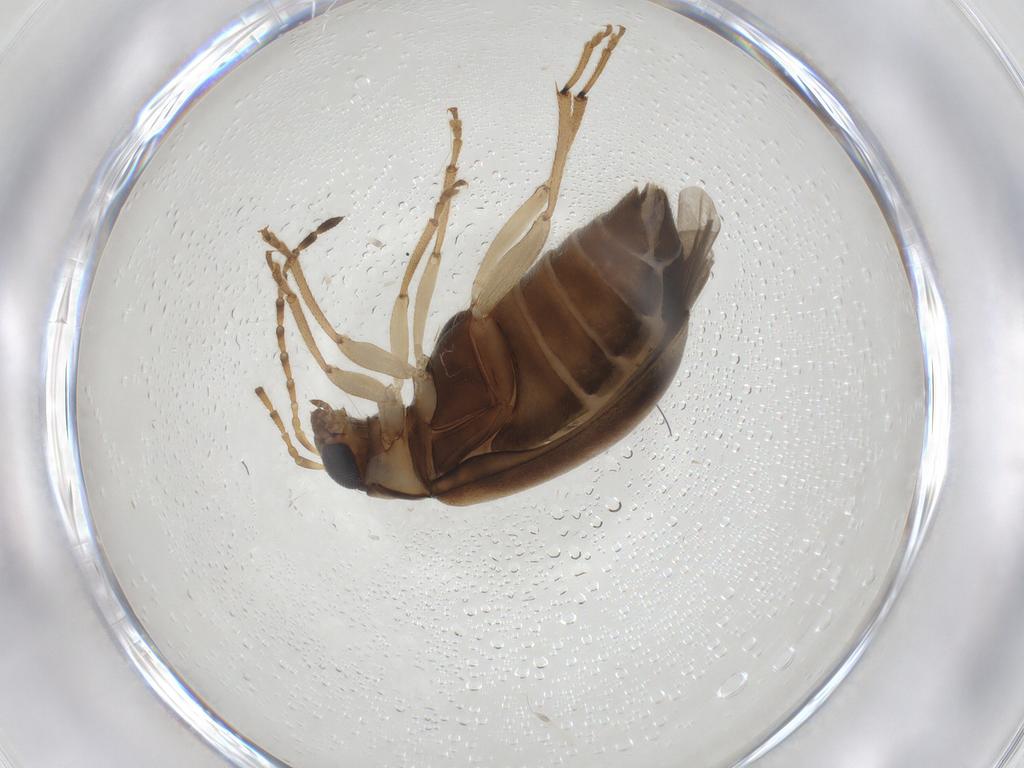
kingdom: Animalia
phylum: Arthropoda
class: Insecta
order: Coleoptera
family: Chrysomelidae
